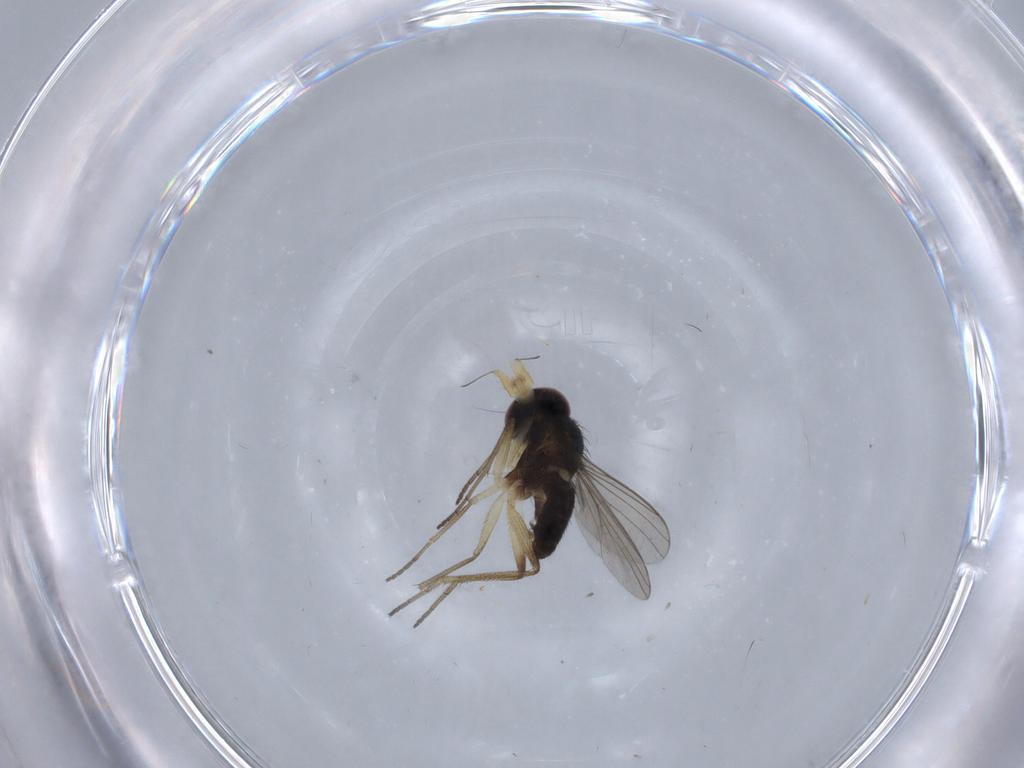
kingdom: Animalia
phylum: Arthropoda
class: Insecta
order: Diptera
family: Dolichopodidae
